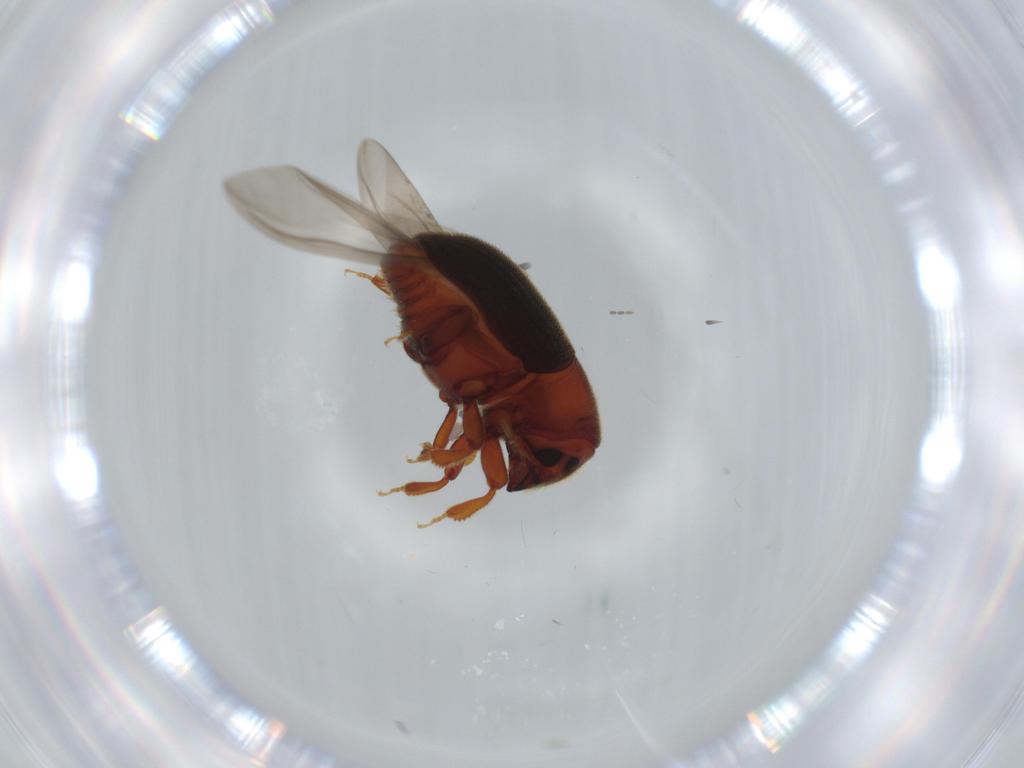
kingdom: Animalia
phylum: Arthropoda
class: Insecta
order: Coleoptera
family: Curculionidae
